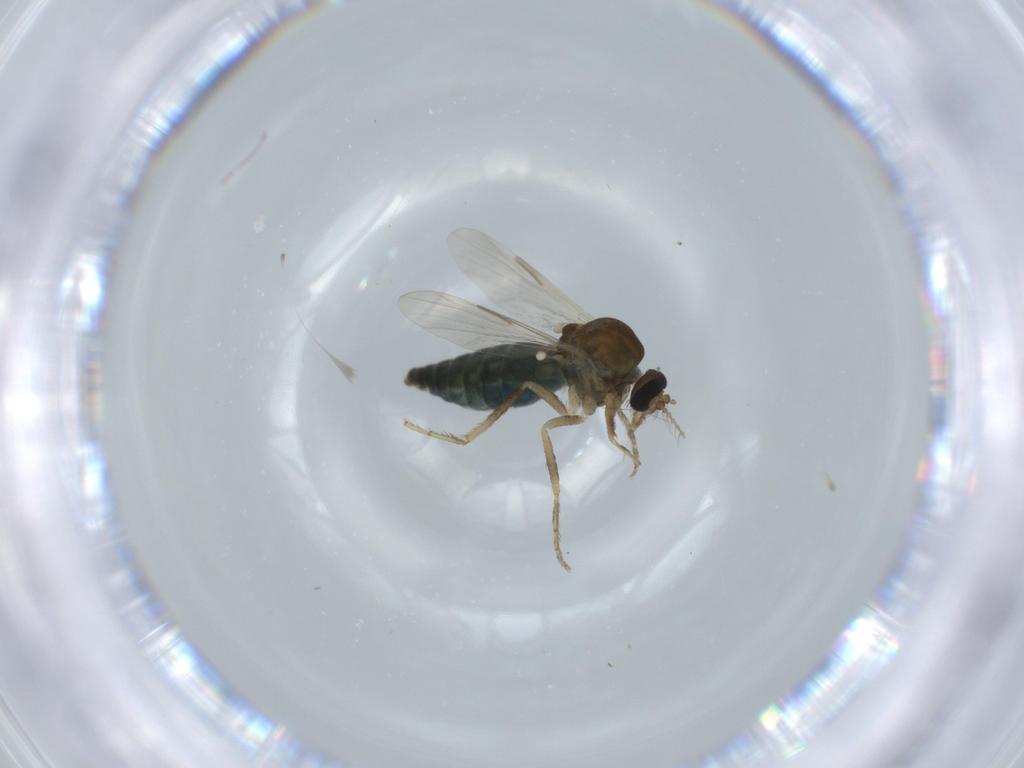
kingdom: Animalia
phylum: Arthropoda
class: Insecta
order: Diptera
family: Ceratopogonidae
